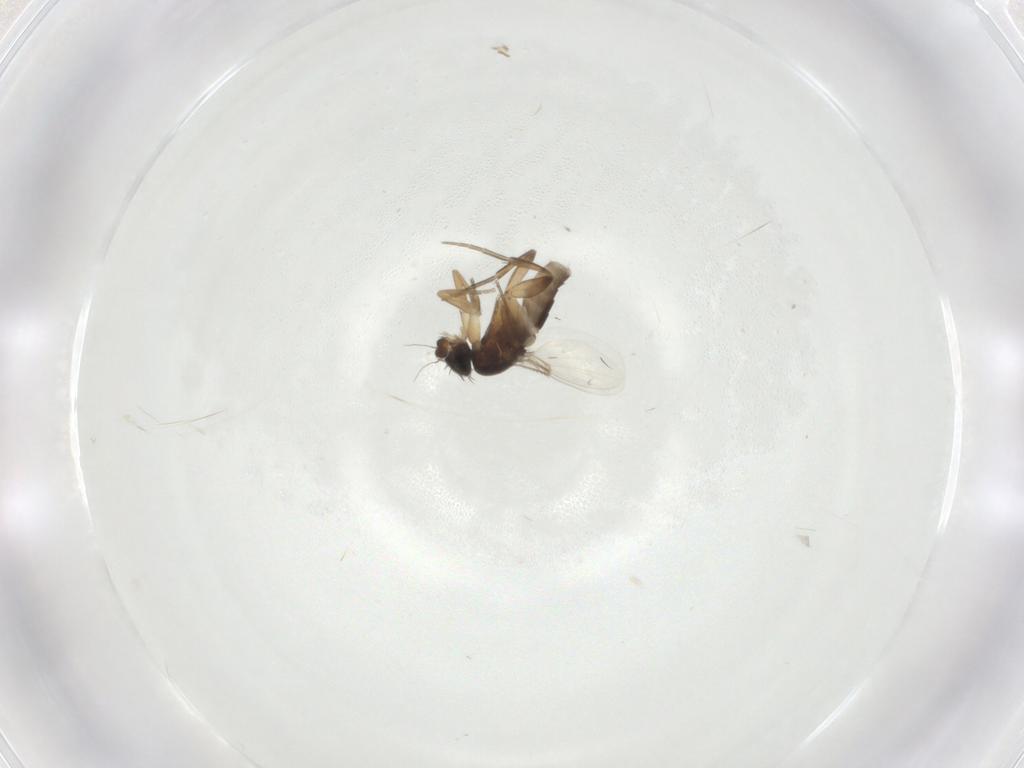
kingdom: Animalia
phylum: Arthropoda
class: Insecta
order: Diptera
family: Phoridae
